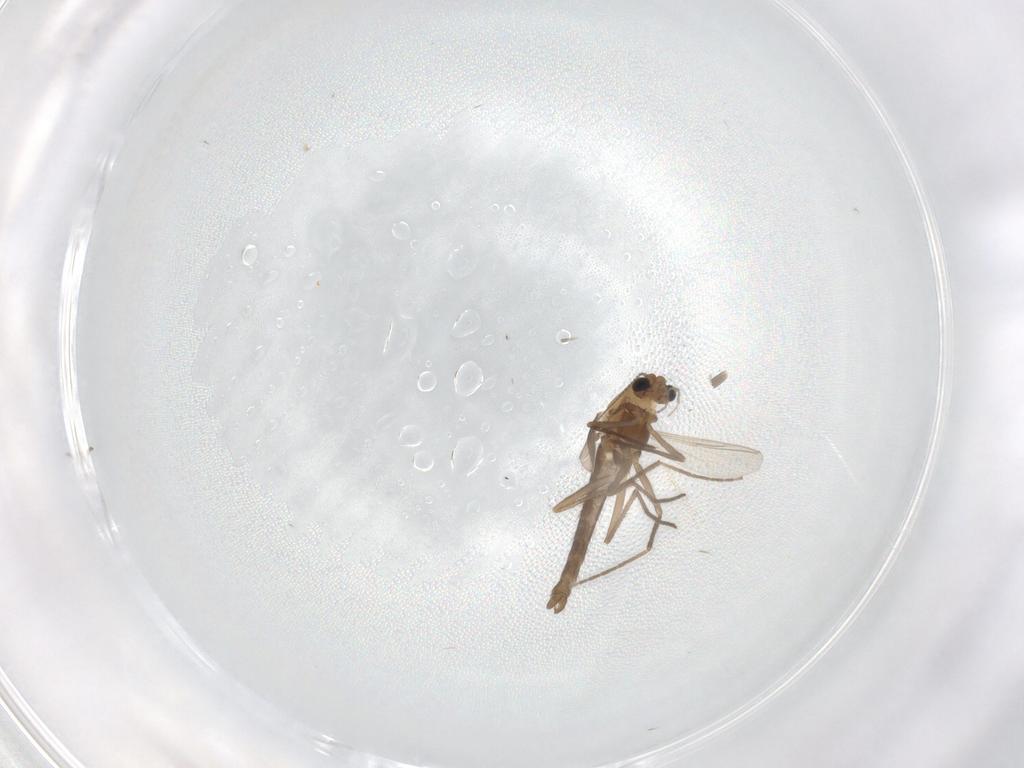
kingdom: Animalia
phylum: Arthropoda
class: Insecta
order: Diptera
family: Chironomidae
